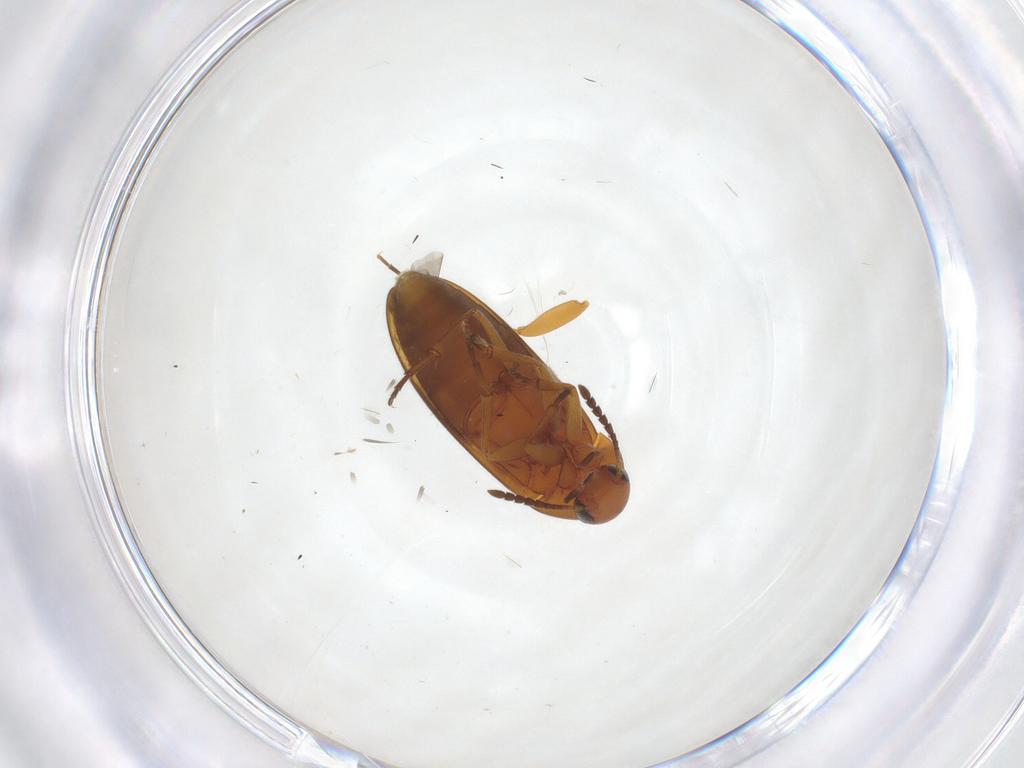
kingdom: Animalia
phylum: Arthropoda
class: Insecta
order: Coleoptera
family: Scraptiidae
